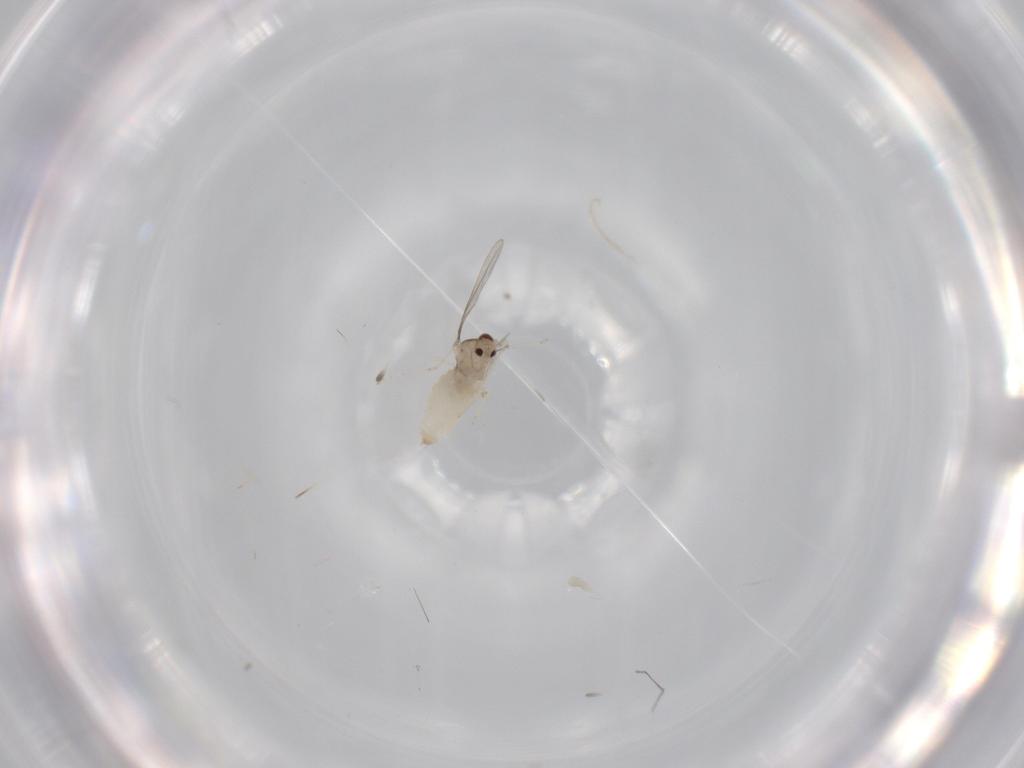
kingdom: Animalia
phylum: Arthropoda
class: Insecta
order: Diptera
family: Cecidomyiidae
